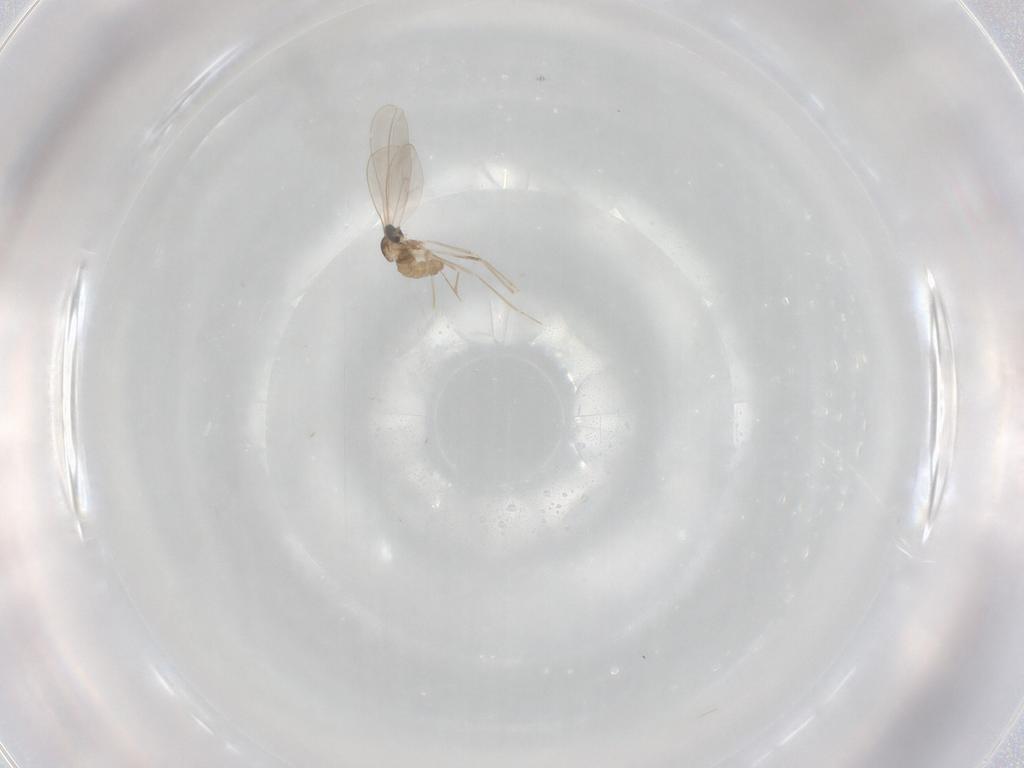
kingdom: Animalia
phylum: Arthropoda
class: Insecta
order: Diptera
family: Cecidomyiidae
